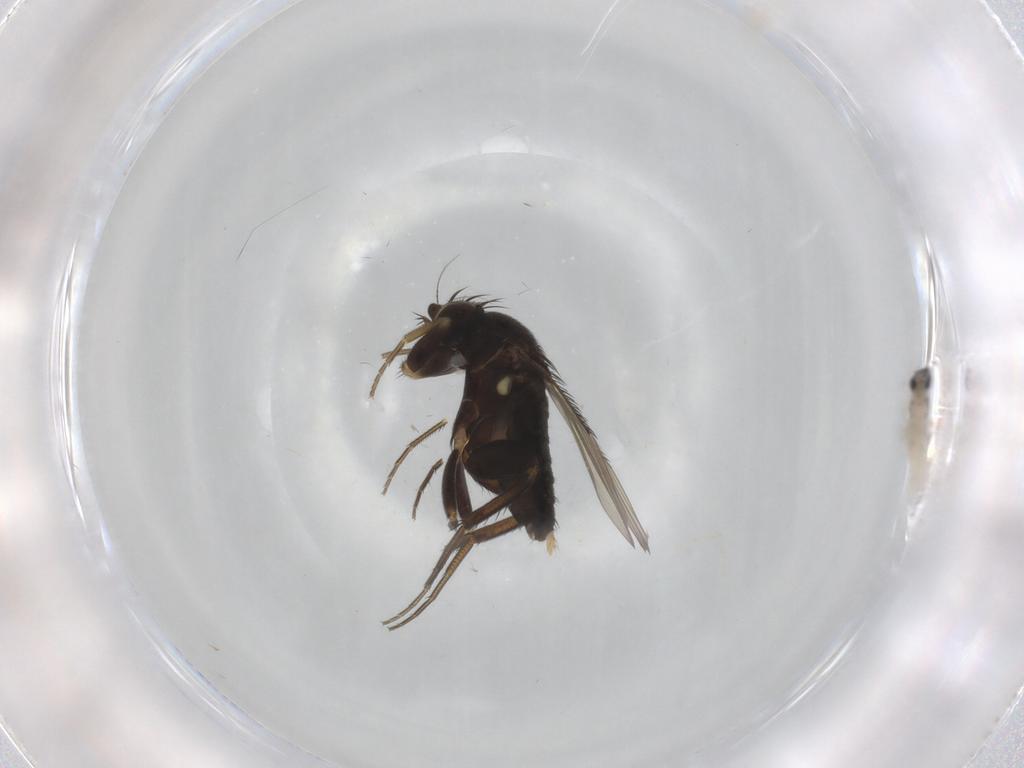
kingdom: Animalia
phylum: Arthropoda
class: Insecta
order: Diptera
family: Phoridae
